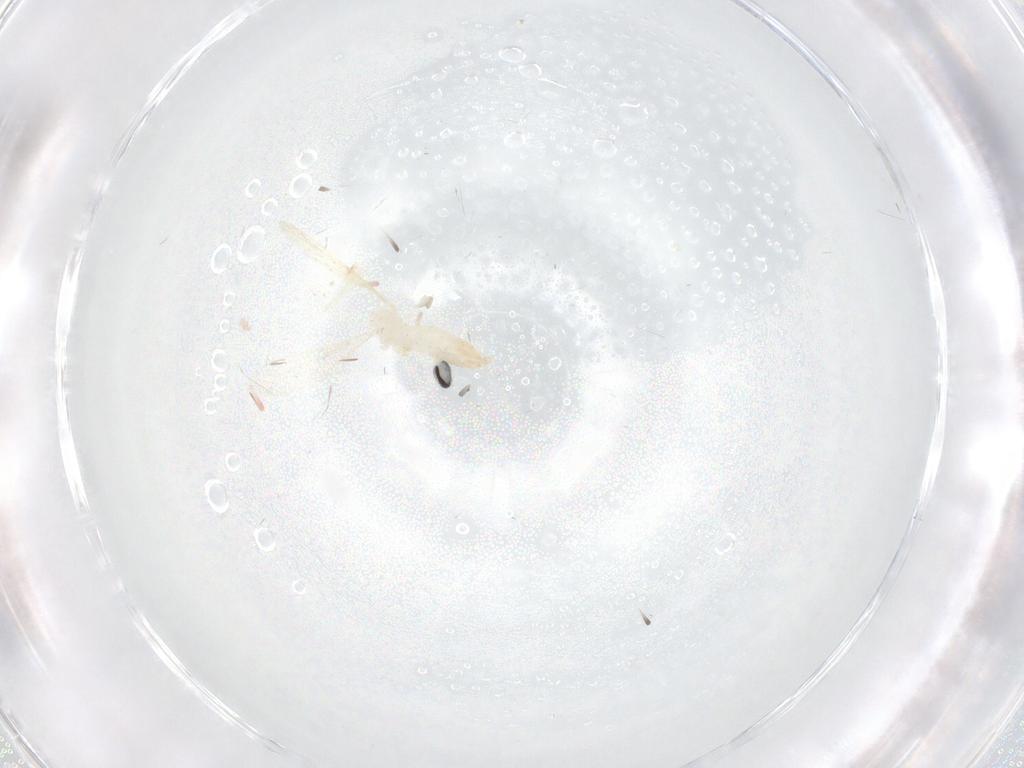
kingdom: Animalia
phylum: Arthropoda
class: Insecta
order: Diptera
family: Cecidomyiidae
